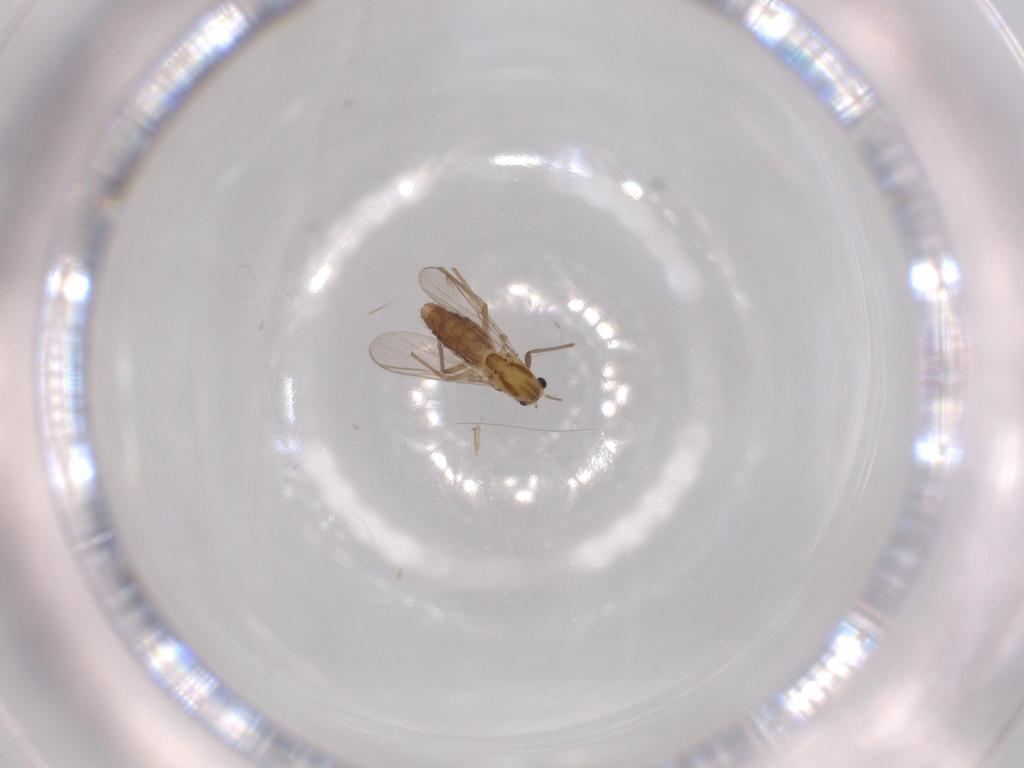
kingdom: Animalia
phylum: Arthropoda
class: Insecta
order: Diptera
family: Chironomidae
